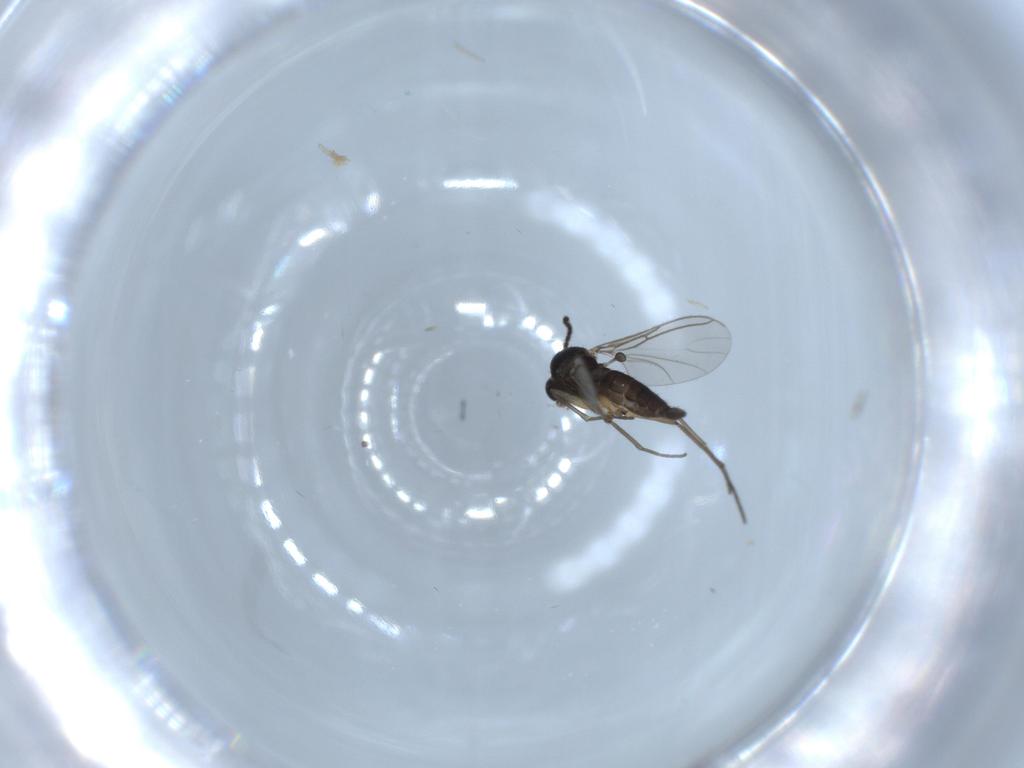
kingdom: Animalia
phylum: Arthropoda
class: Insecta
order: Diptera
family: Sciaridae
